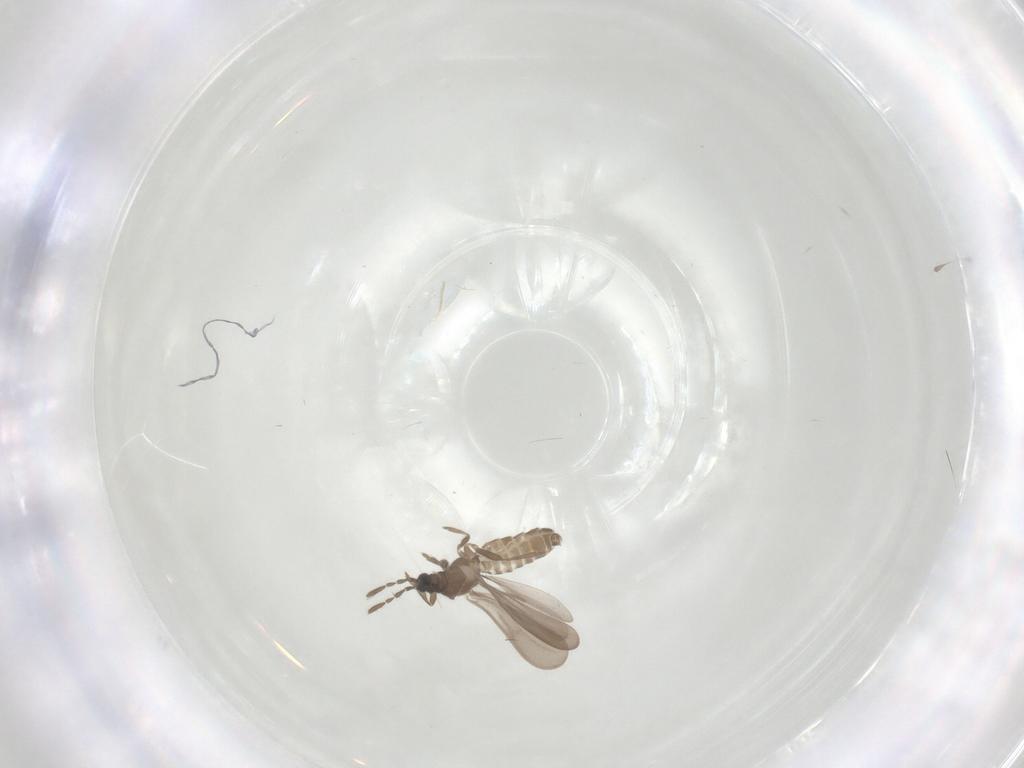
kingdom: Animalia
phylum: Arthropoda
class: Insecta
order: Hemiptera
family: Enicocephalidae
